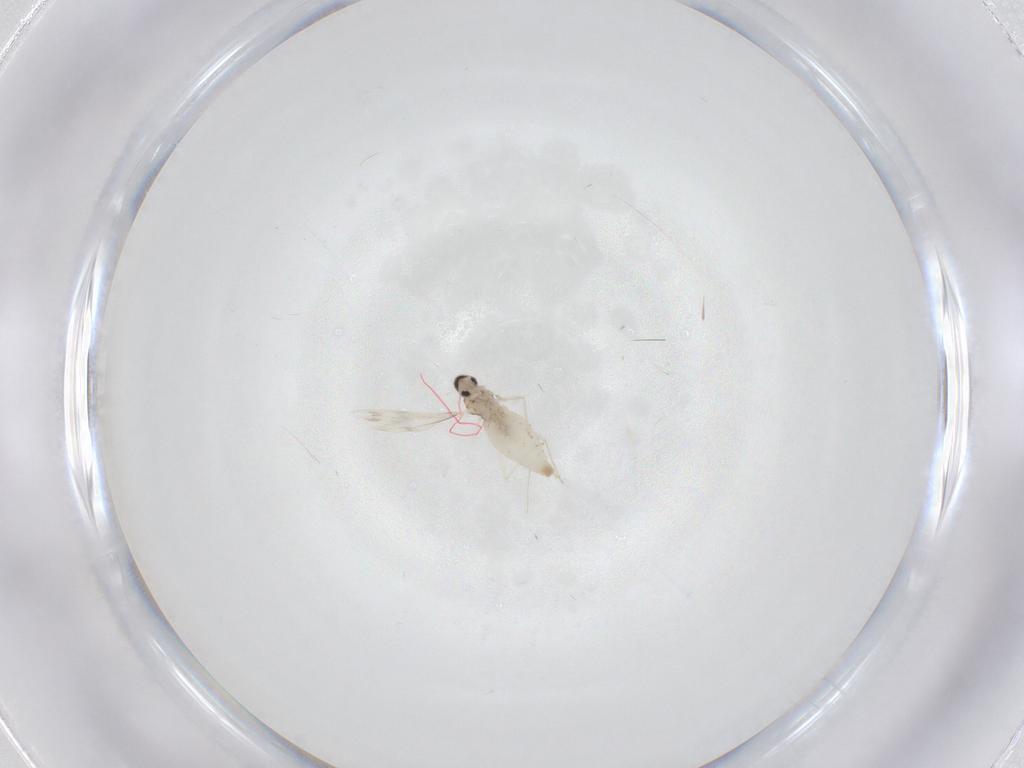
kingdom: Animalia
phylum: Arthropoda
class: Insecta
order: Diptera
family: Cecidomyiidae
